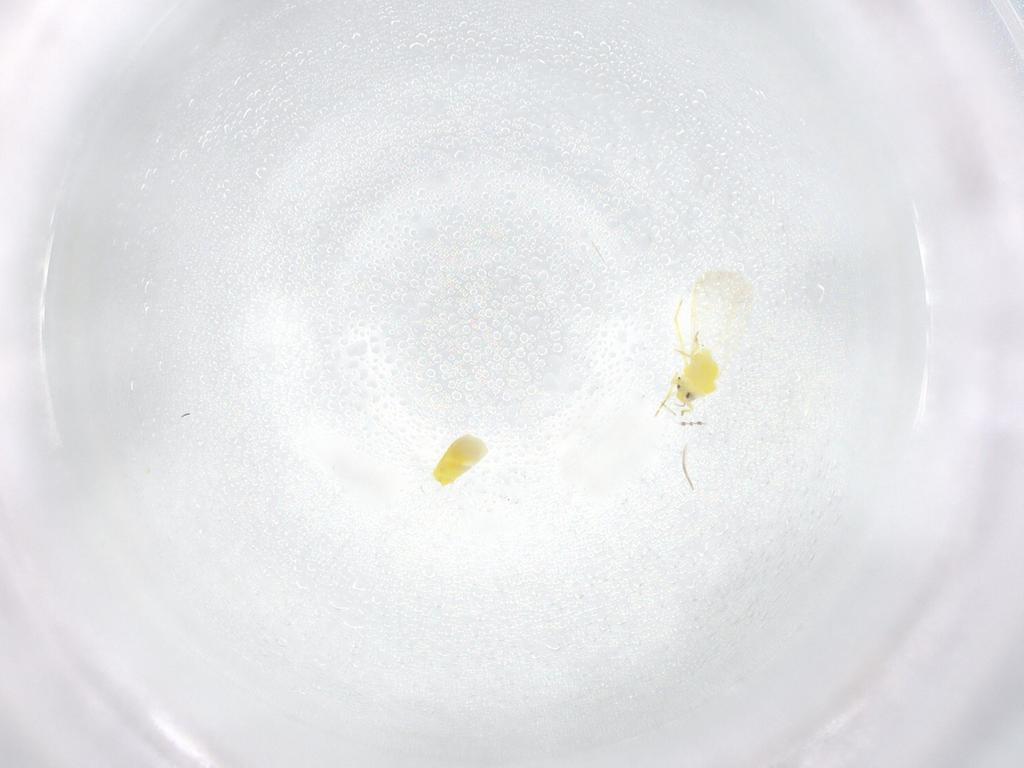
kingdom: Animalia
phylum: Arthropoda
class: Insecta
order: Hemiptera
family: Aleyrodidae
